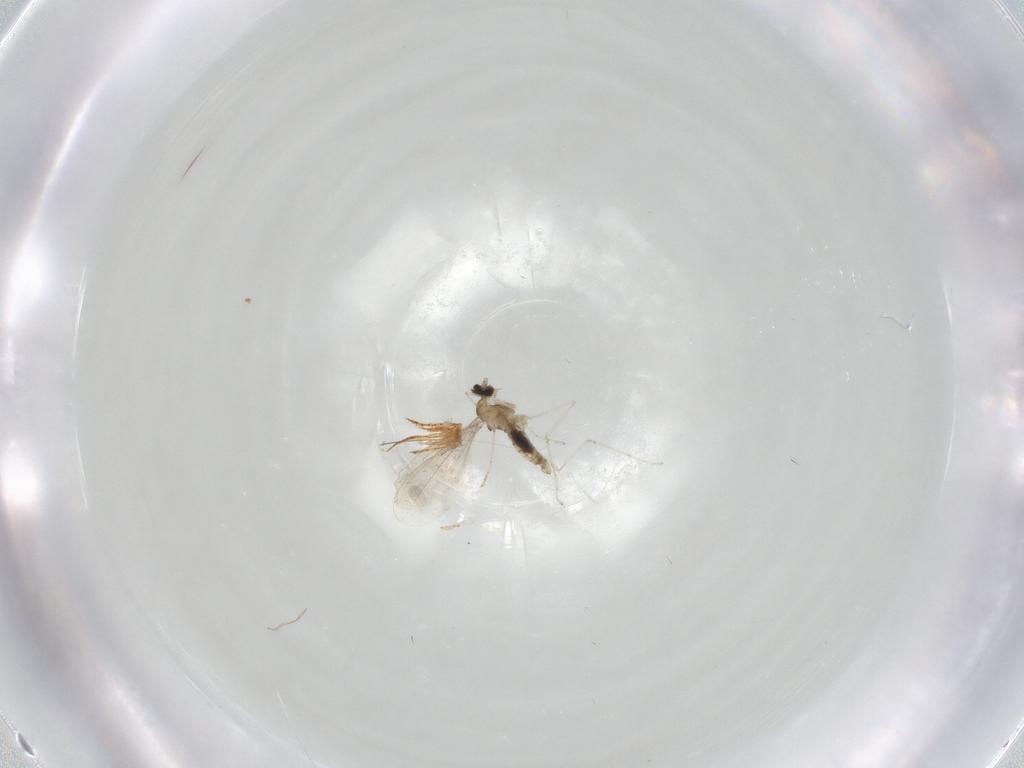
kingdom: Animalia
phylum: Arthropoda
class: Insecta
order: Diptera
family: Cecidomyiidae
